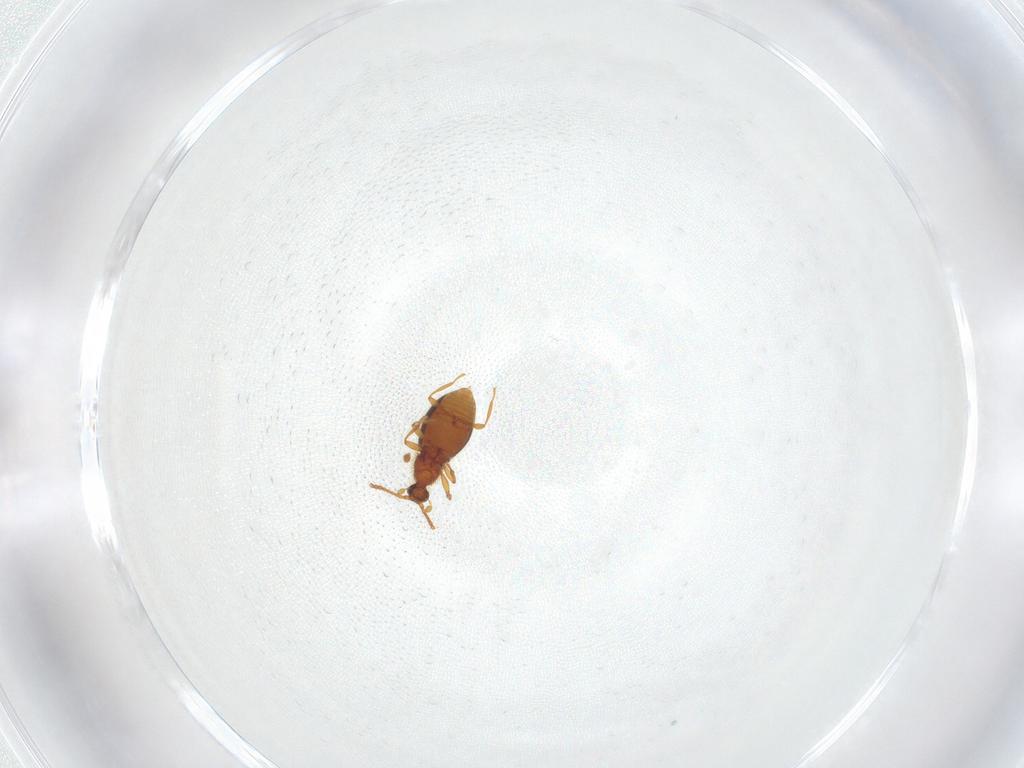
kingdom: Animalia
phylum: Arthropoda
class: Insecta
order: Coleoptera
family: Staphylinidae
